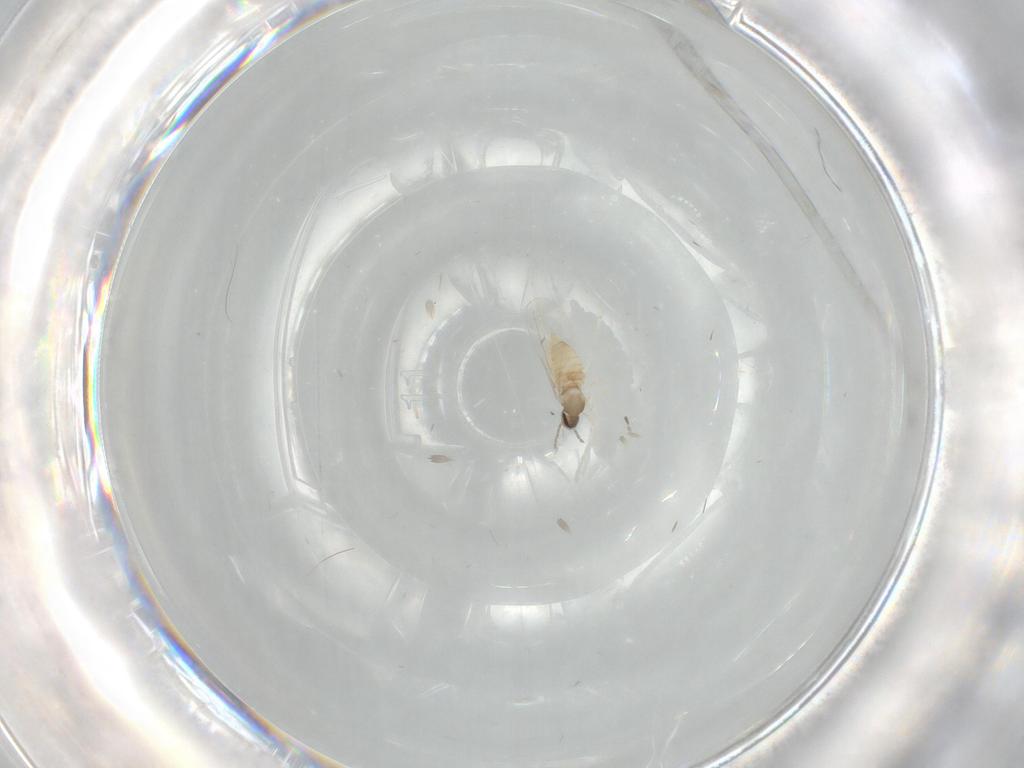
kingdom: Animalia
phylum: Arthropoda
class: Insecta
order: Diptera
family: Cecidomyiidae
